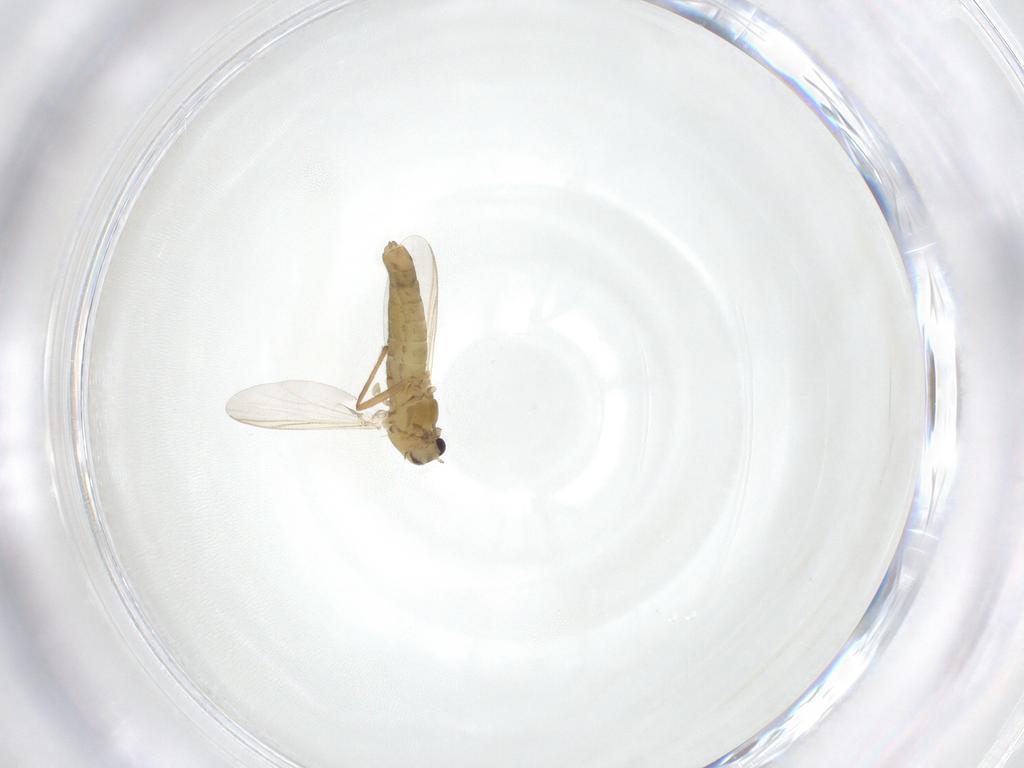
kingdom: Animalia
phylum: Arthropoda
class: Insecta
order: Diptera
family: Chironomidae
